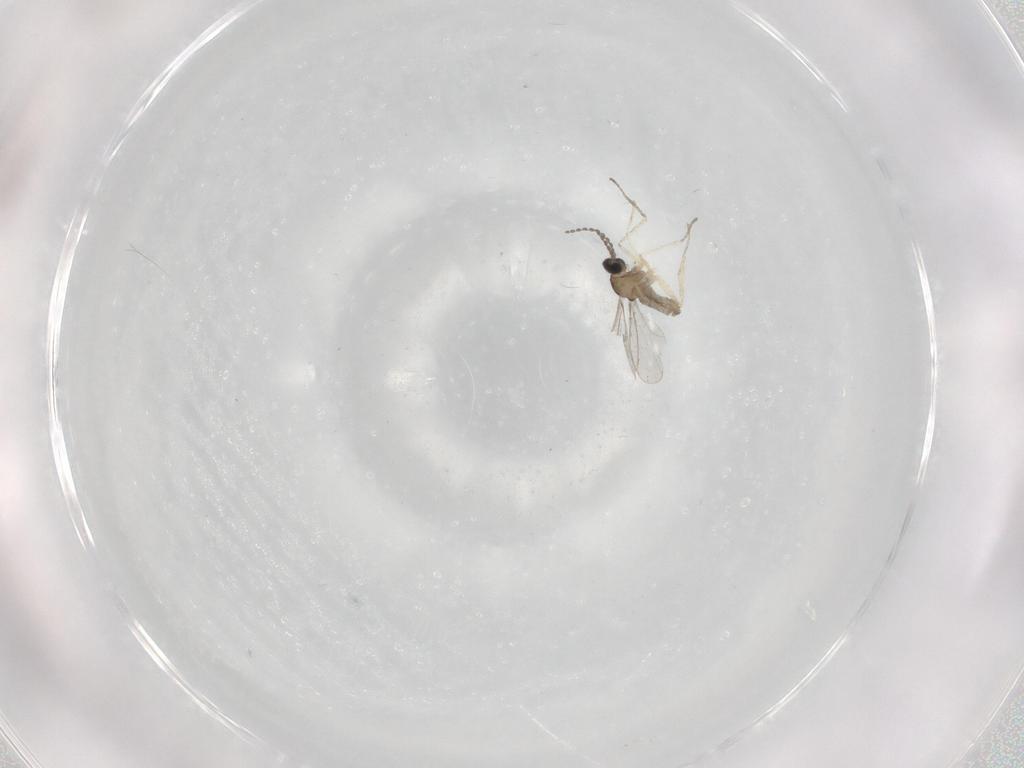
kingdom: Animalia
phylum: Arthropoda
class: Insecta
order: Diptera
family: Cecidomyiidae
